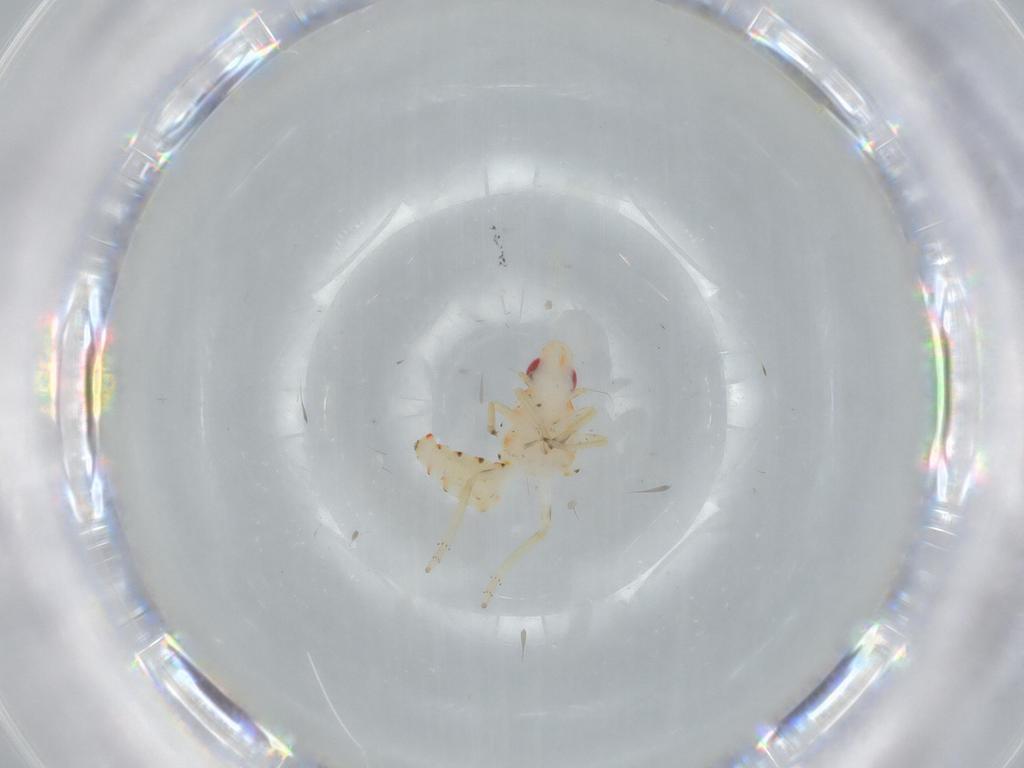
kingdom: Animalia
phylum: Arthropoda
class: Insecta
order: Hemiptera
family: Tropiduchidae
